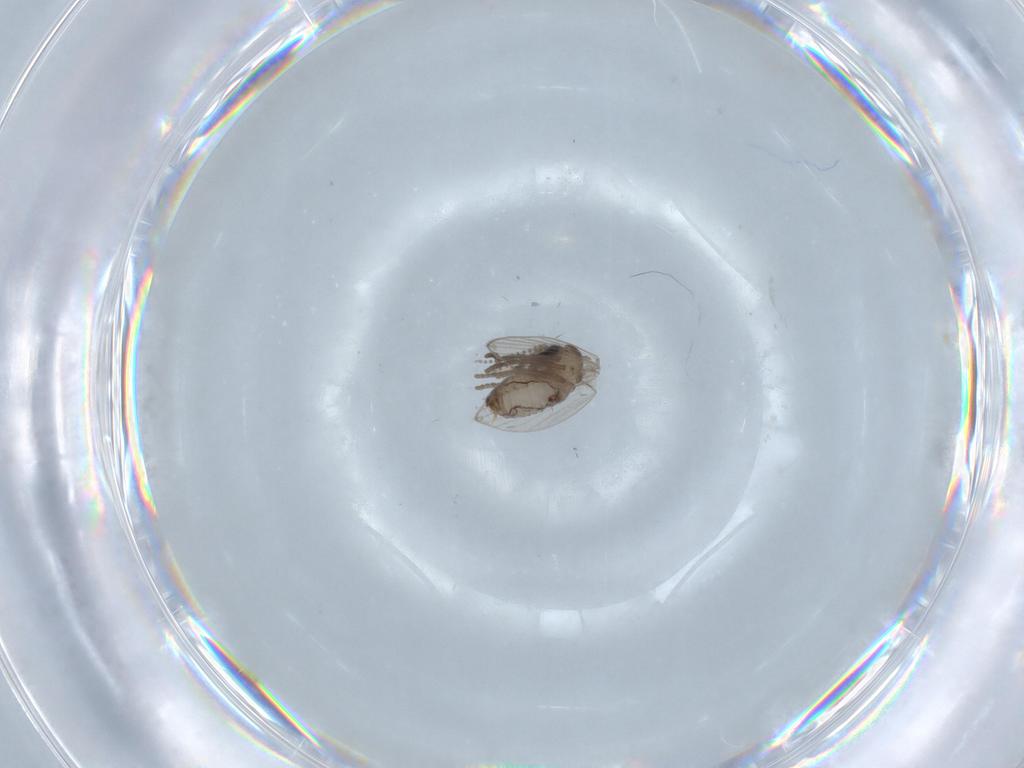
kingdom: Animalia
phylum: Arthropoda
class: Insecta
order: Diptera
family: Psychodidae
